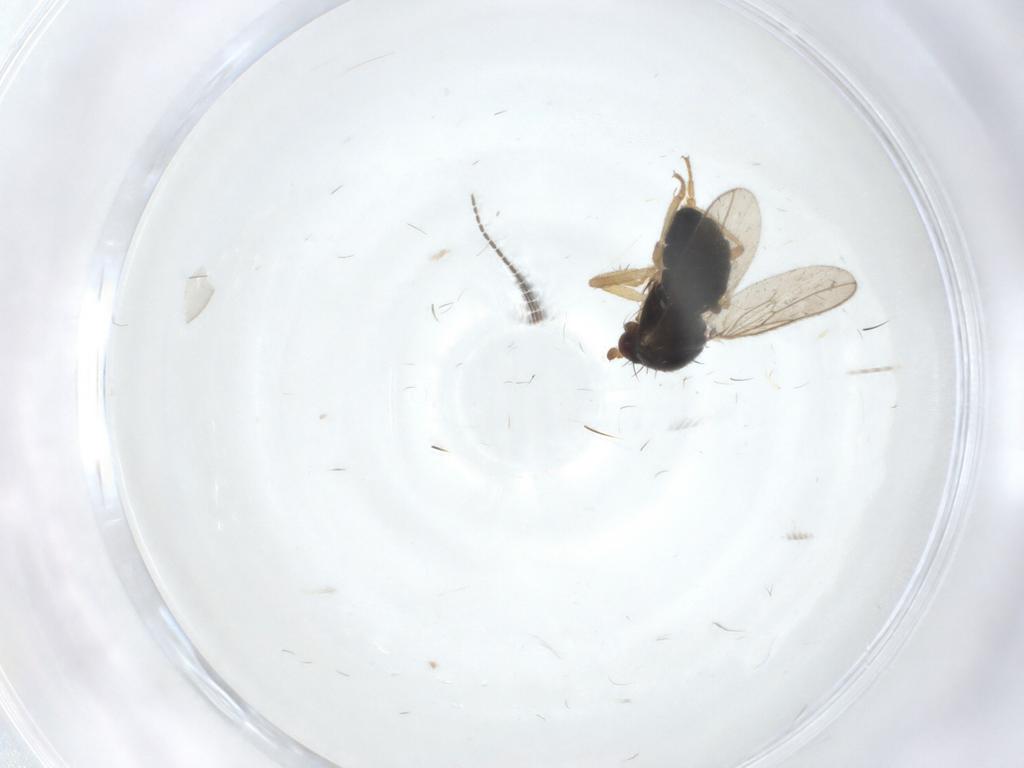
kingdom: Animalia
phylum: Arthropoda
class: Insecta
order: Diptera
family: Sphaeroceridae
